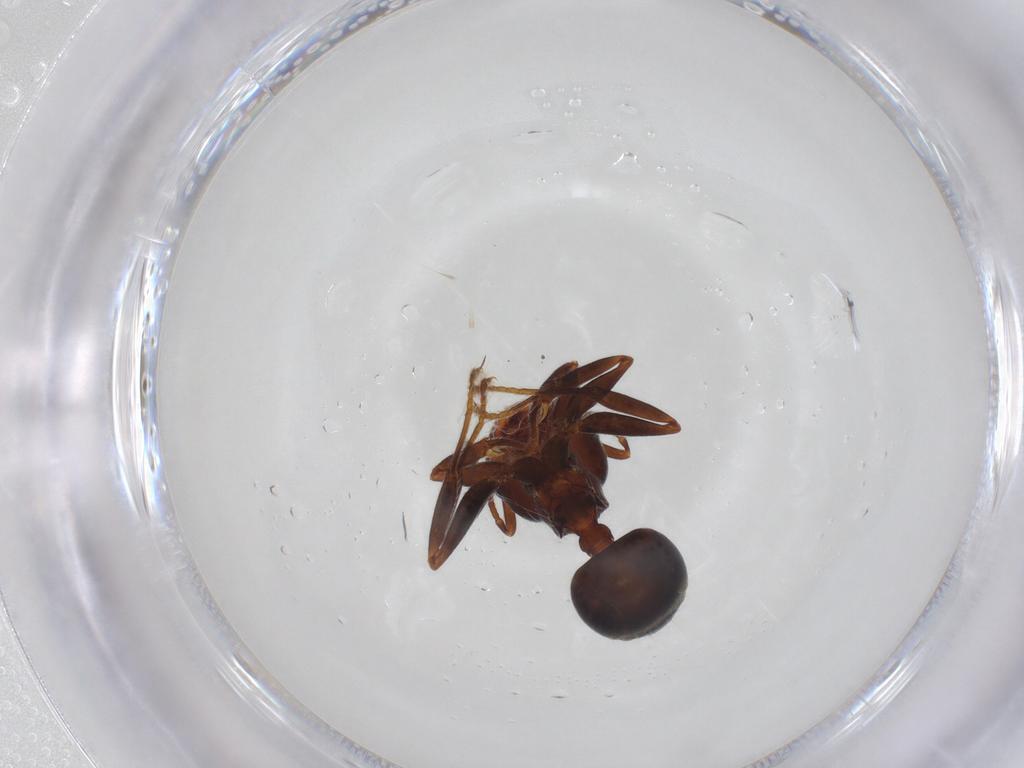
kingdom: Animalia
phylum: Arthropoda
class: Insecta
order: Hymenoptera
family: Formicidae
